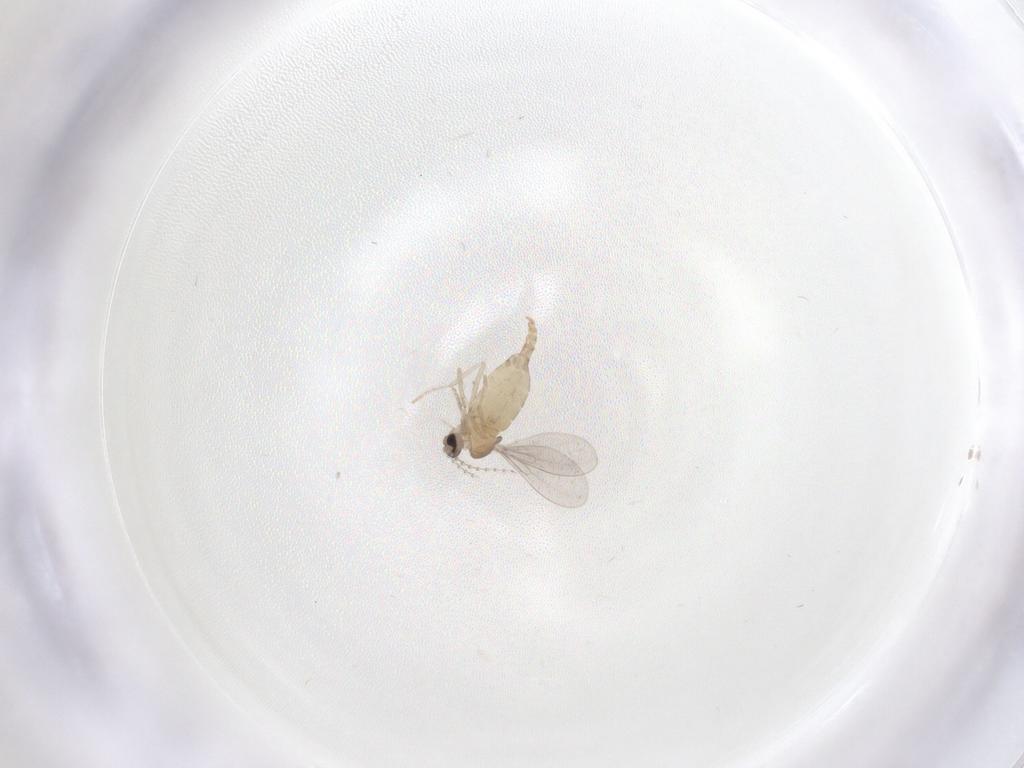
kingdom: Animalia
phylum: Arthropoda
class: Insecta
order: Diptera
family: Cecidomyiidae
